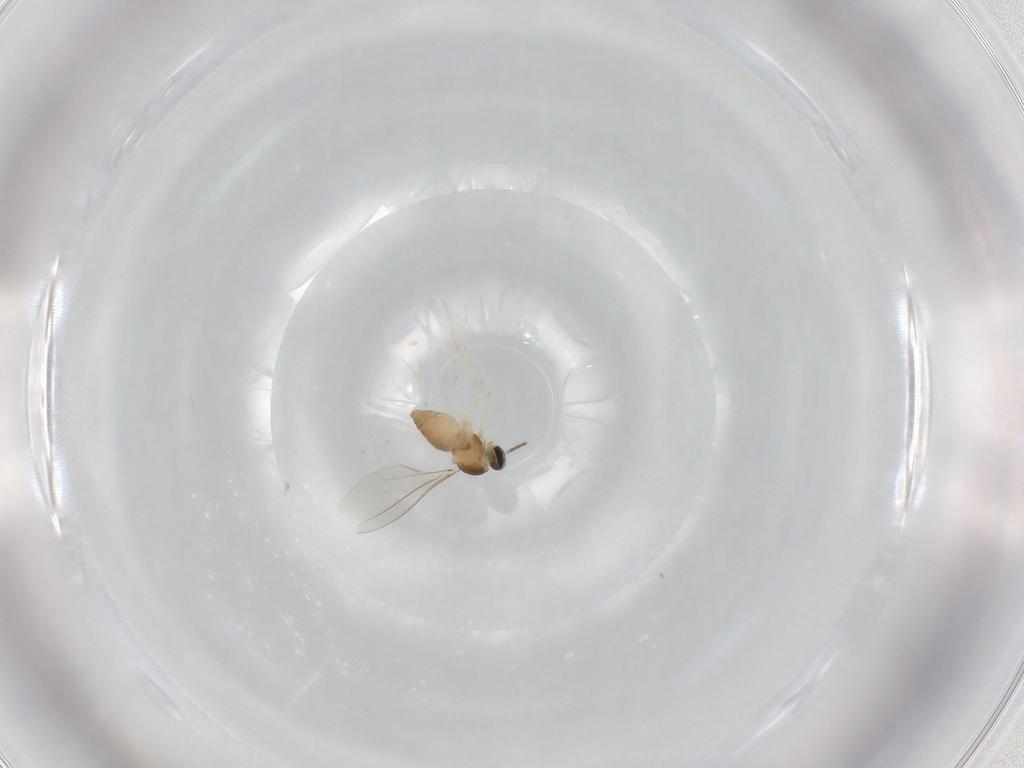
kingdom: Animalia
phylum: Arthropoda
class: Insecta
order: Diptera
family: Cecidomyiidae
